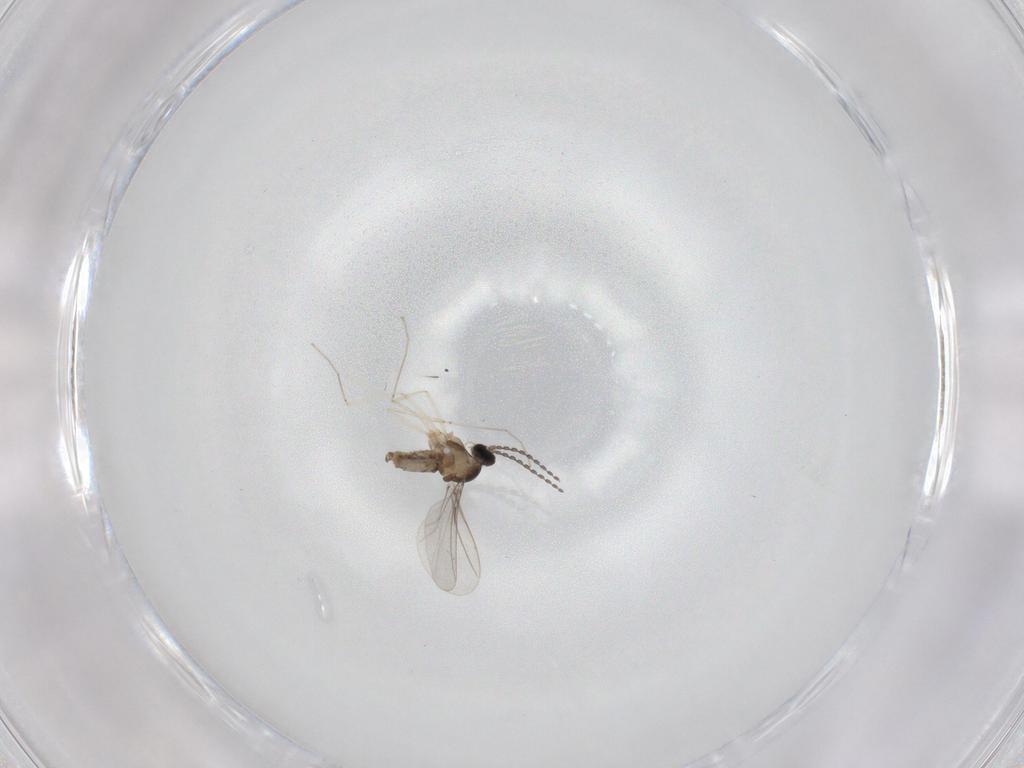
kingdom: Animalia
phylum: Arthropoda
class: Insecta
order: Diptera
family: Cecidomyiidae
